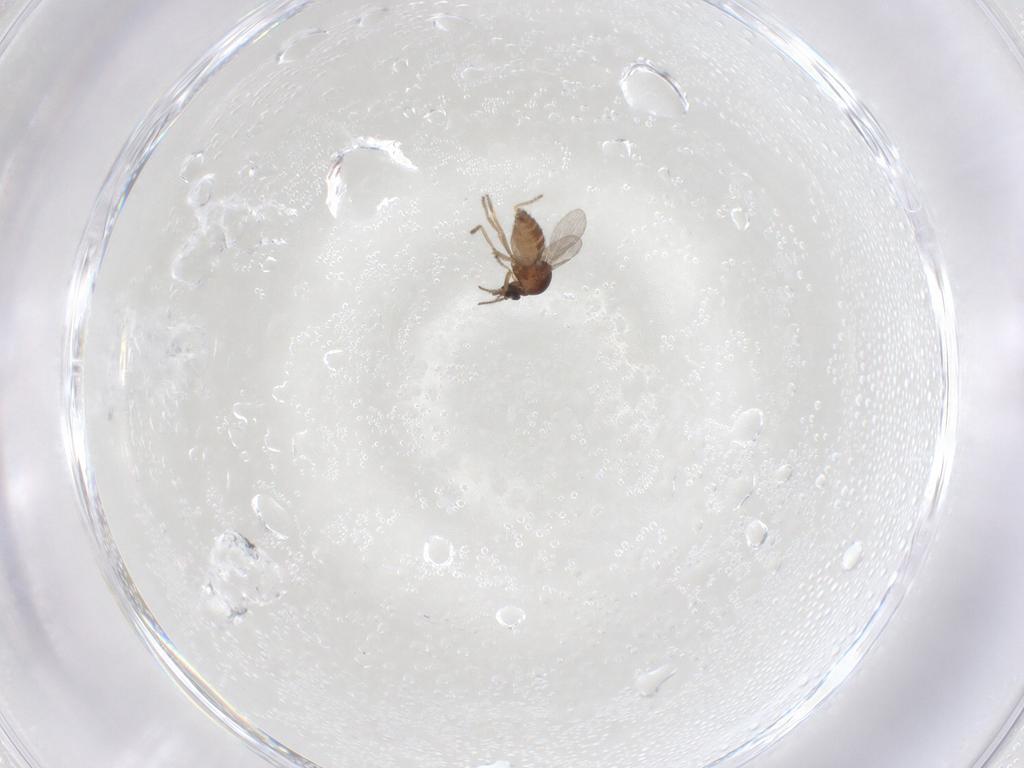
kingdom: Animalia
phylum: Arthropoda
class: Insecta
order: Diptera
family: Ceratopogonidae
